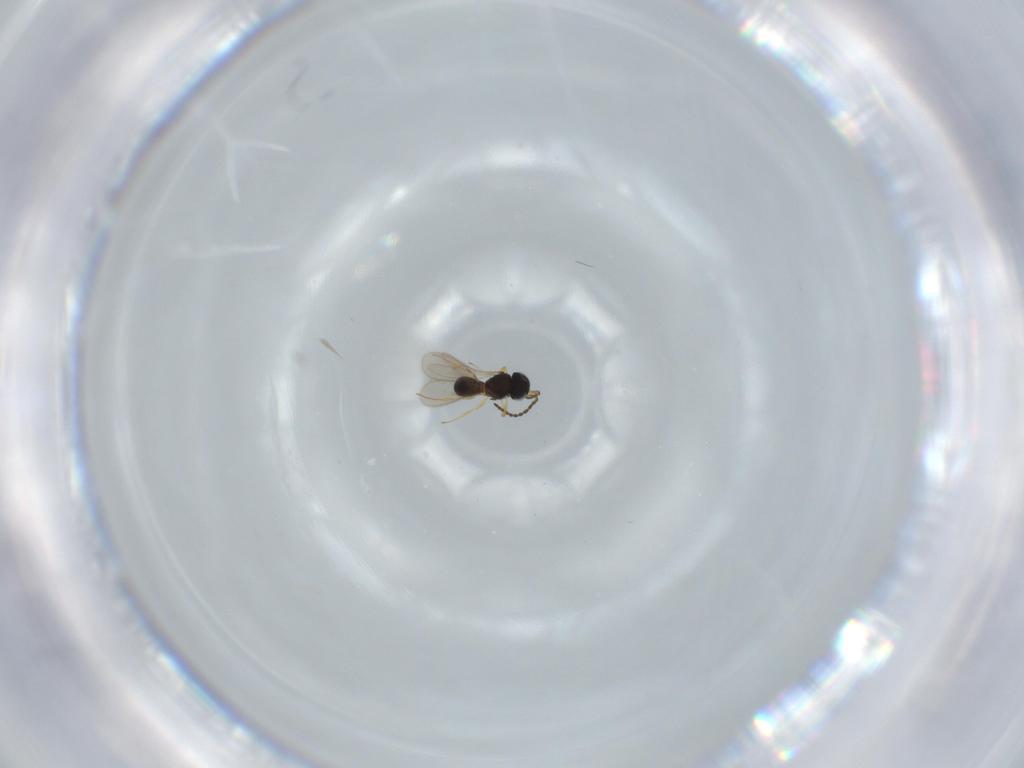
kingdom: Animalia
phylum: Arthropoda
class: Insecta
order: Hymenoptera
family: Scelionidae
